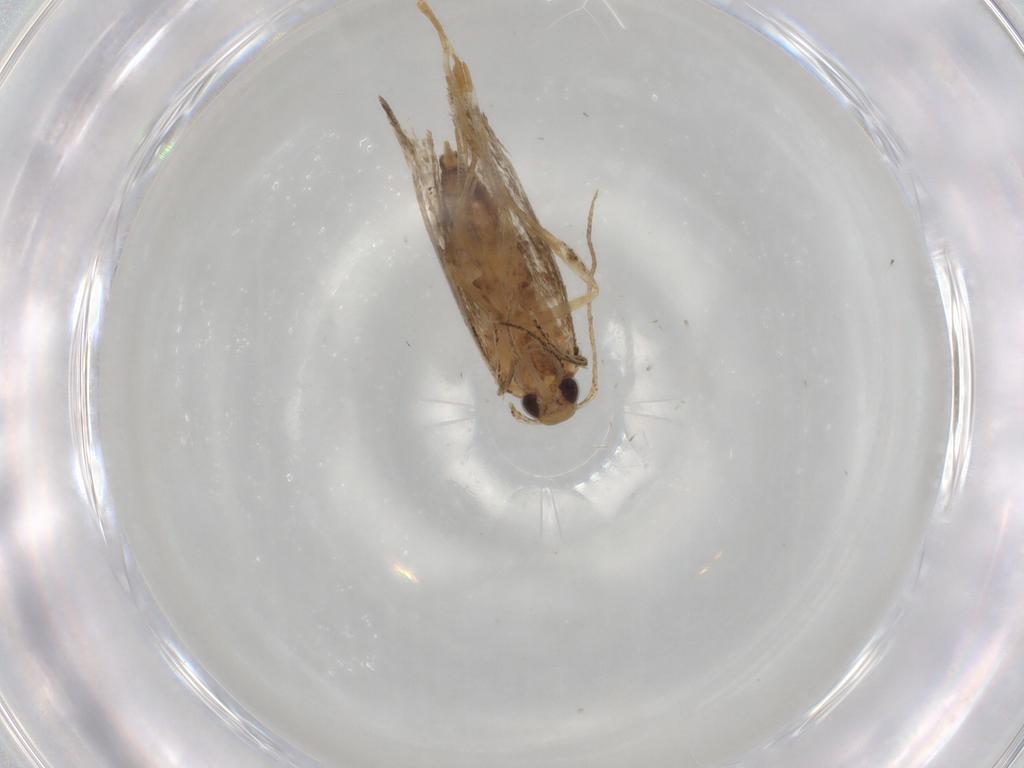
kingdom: Animalia
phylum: Arthropoda
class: Insecta
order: Lepidoptera
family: Cosmopterigidae
